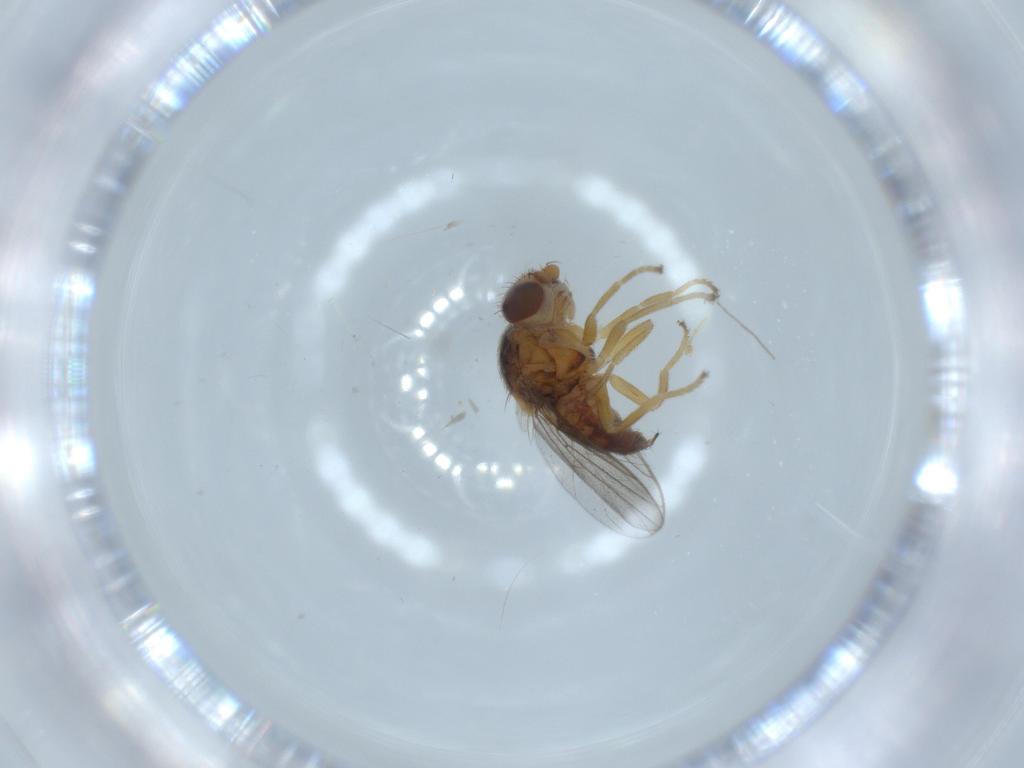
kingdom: Animalia
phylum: Arthropoda
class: Insecta
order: Diptera
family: Chloropidae
